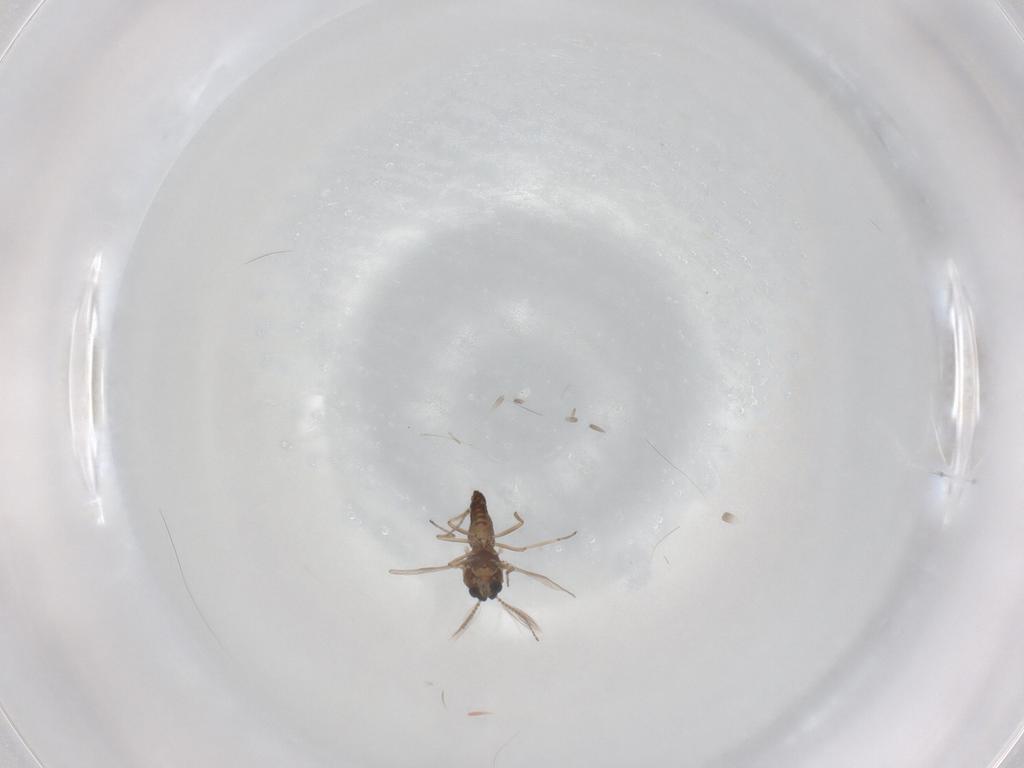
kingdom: Animalia
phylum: Arthropoda
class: Insecta
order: Diptera
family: Ceratopogonidae
